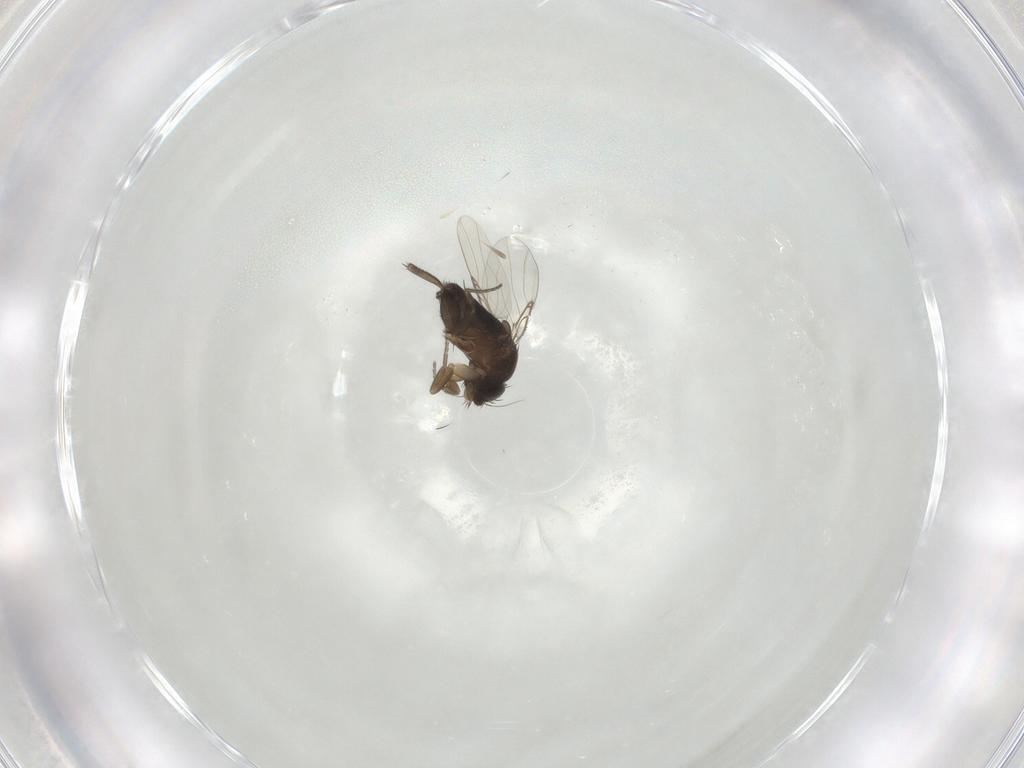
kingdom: Animalia
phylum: Arthropoda
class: Insecta
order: Diptera
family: Phoridae
